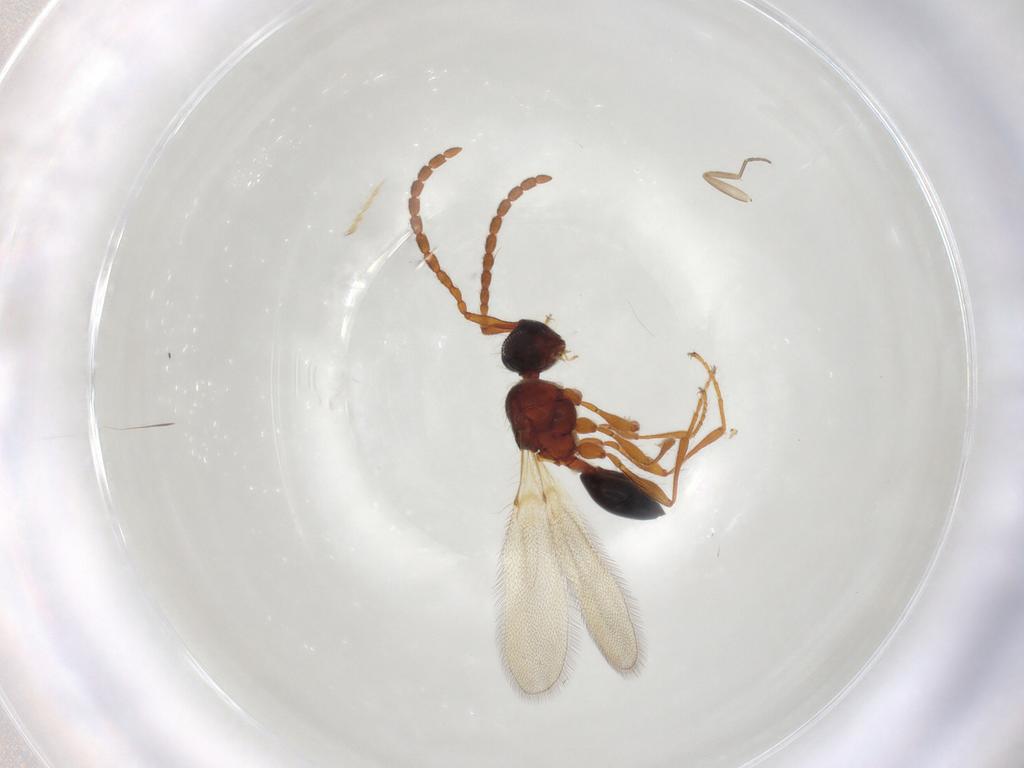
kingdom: Animalia
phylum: Arthropoda
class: Insecta
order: Hymenoptera
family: Diapriidae
